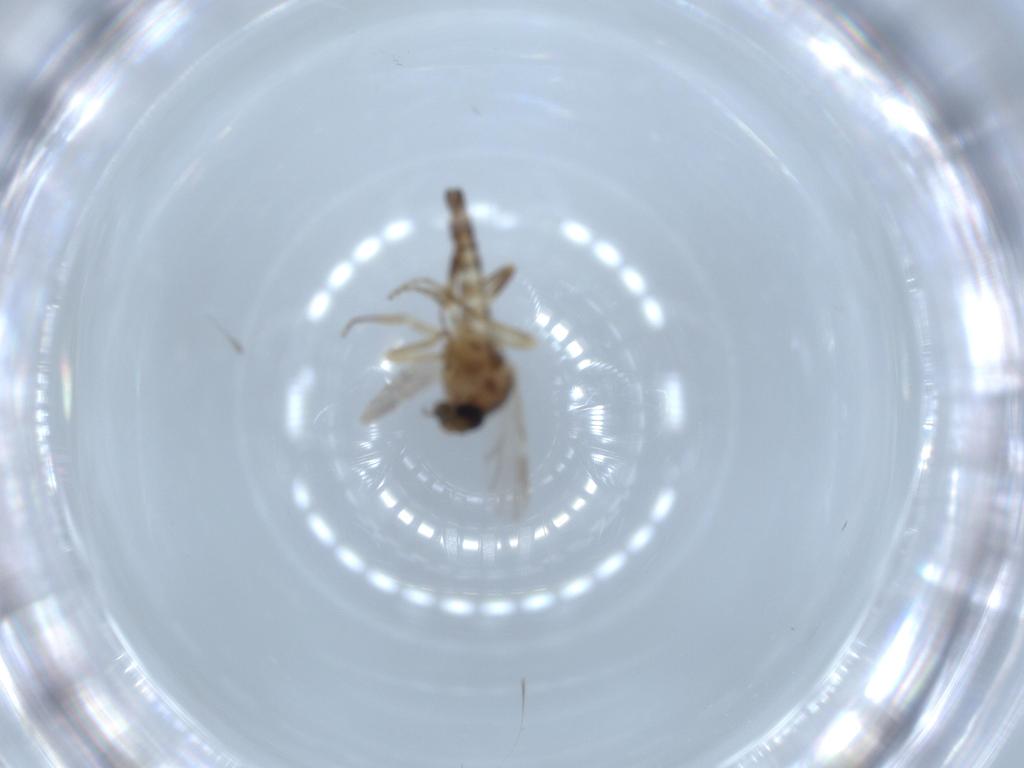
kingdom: Animalia
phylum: Arthropoda
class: Insecta
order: Diptera
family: Ceratopogonidae
